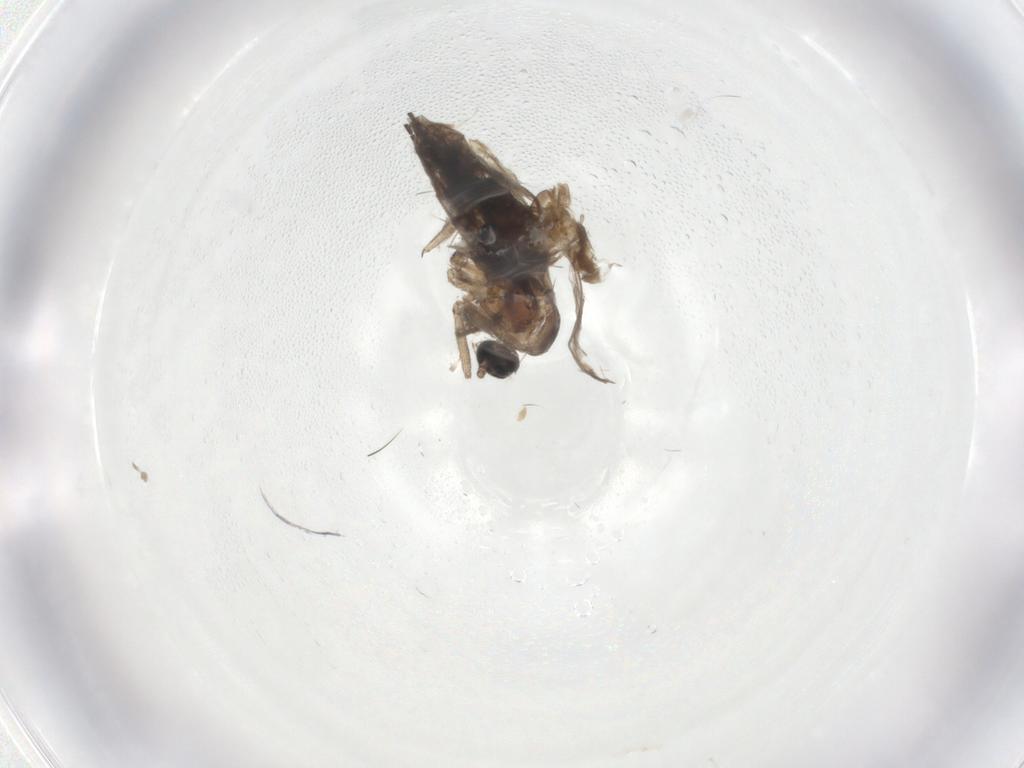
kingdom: Animalia
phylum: Arthropoda
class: Insecta
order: Diptera
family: Chironomidae
